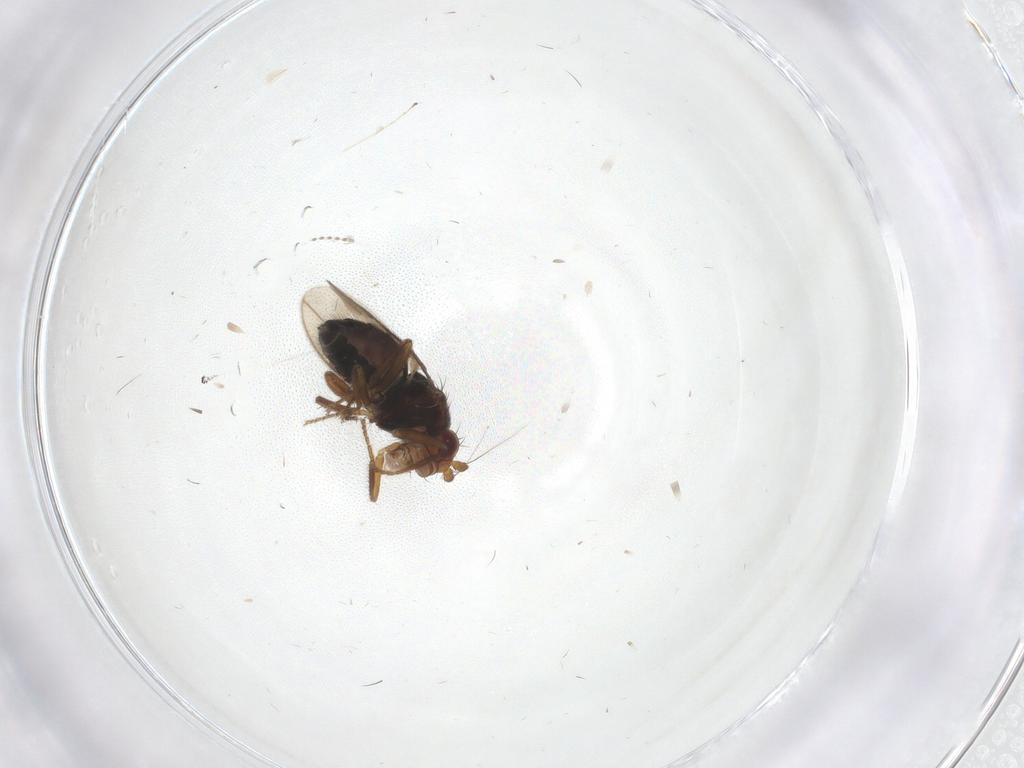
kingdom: Animalia
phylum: Arthropoda
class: Insecta
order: Diptera
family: Sphaeroceridae
